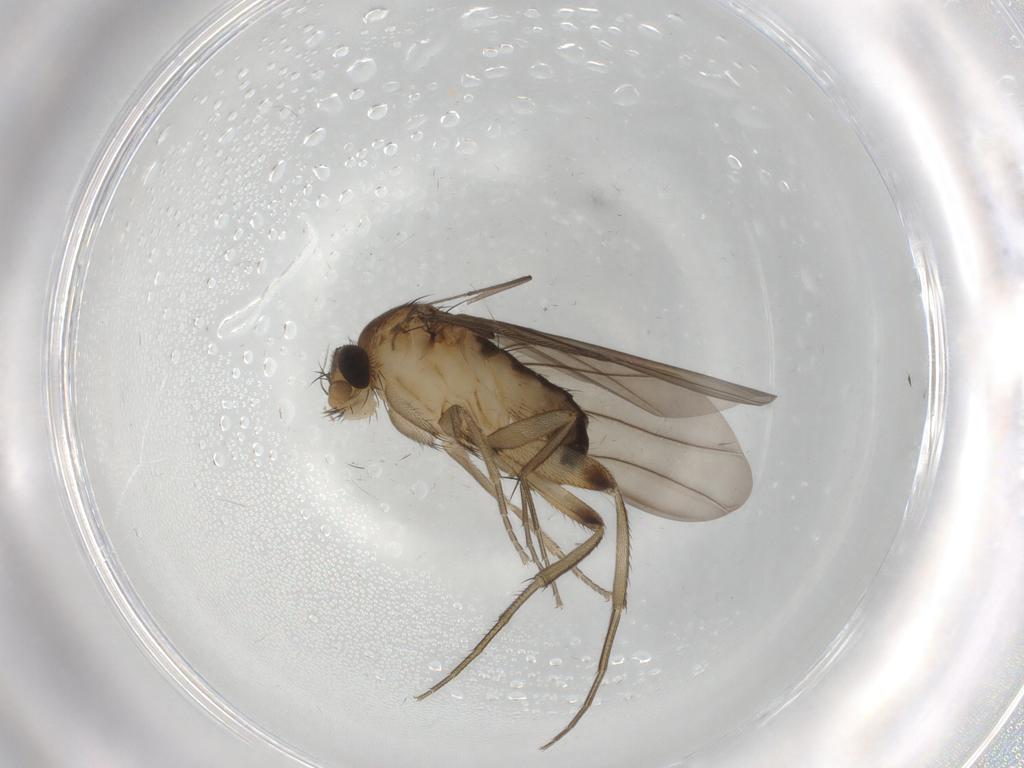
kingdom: Animalia
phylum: Arthropoda
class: Insecta
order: Diptera
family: Phoridae
